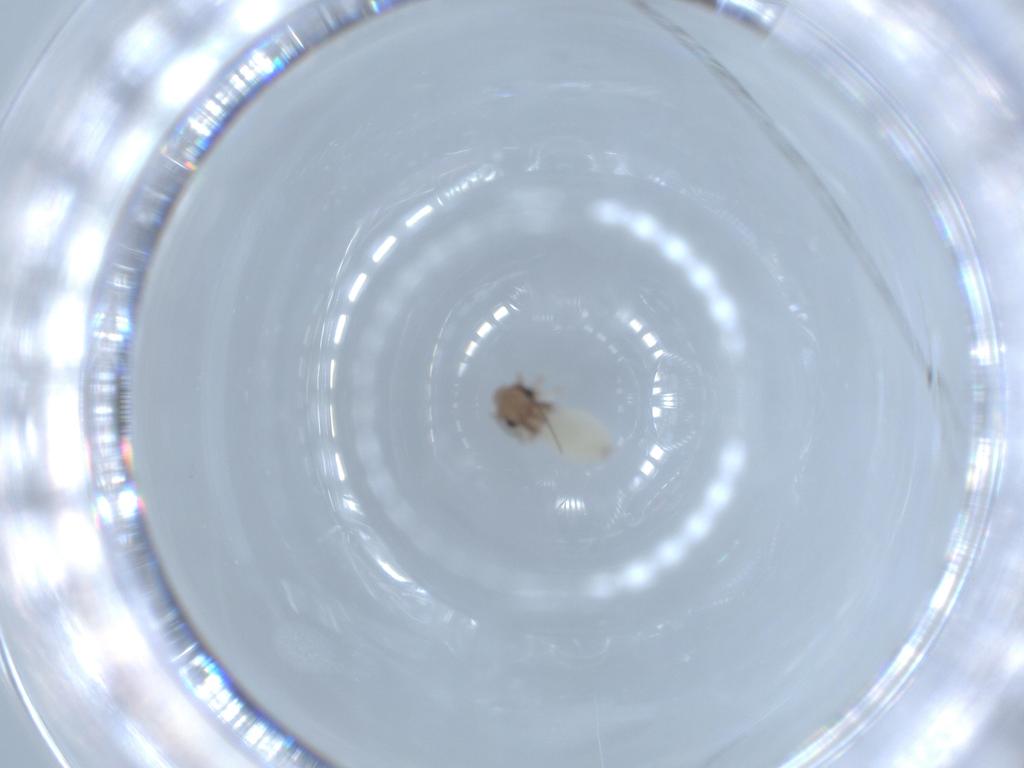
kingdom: Animalia
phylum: Arthropoda
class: Insecta
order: Psocodea
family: Lepidopsocidae
